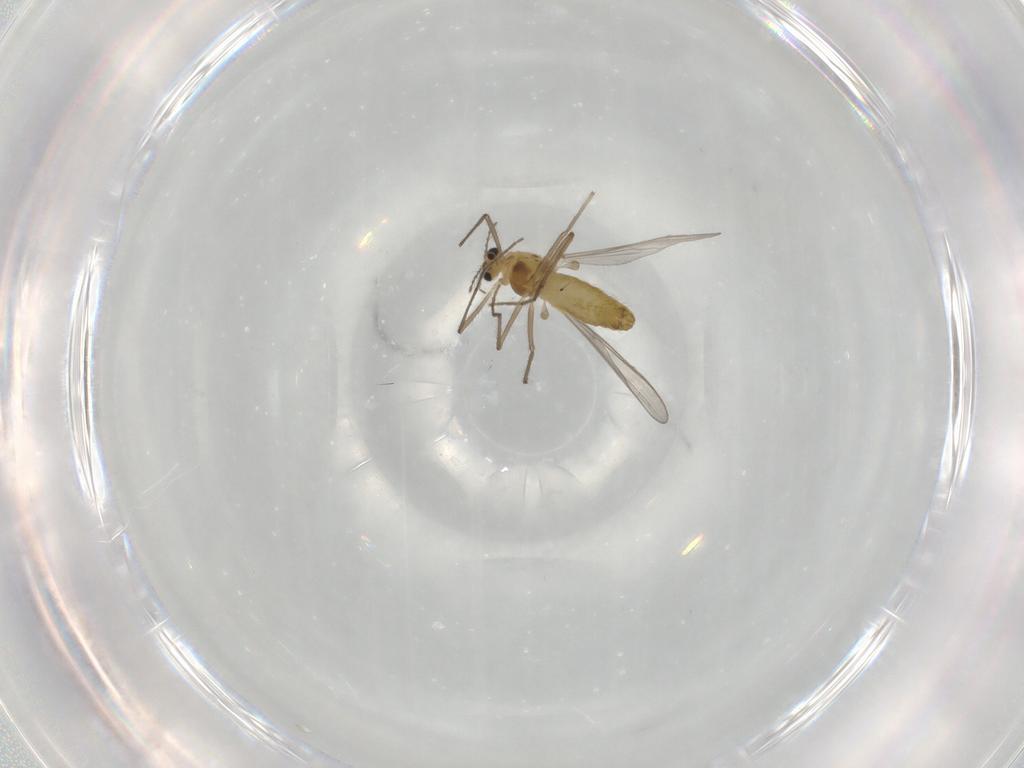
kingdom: Animalia
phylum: Arthropoda
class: Insecta
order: Diptera
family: Chironomidae
